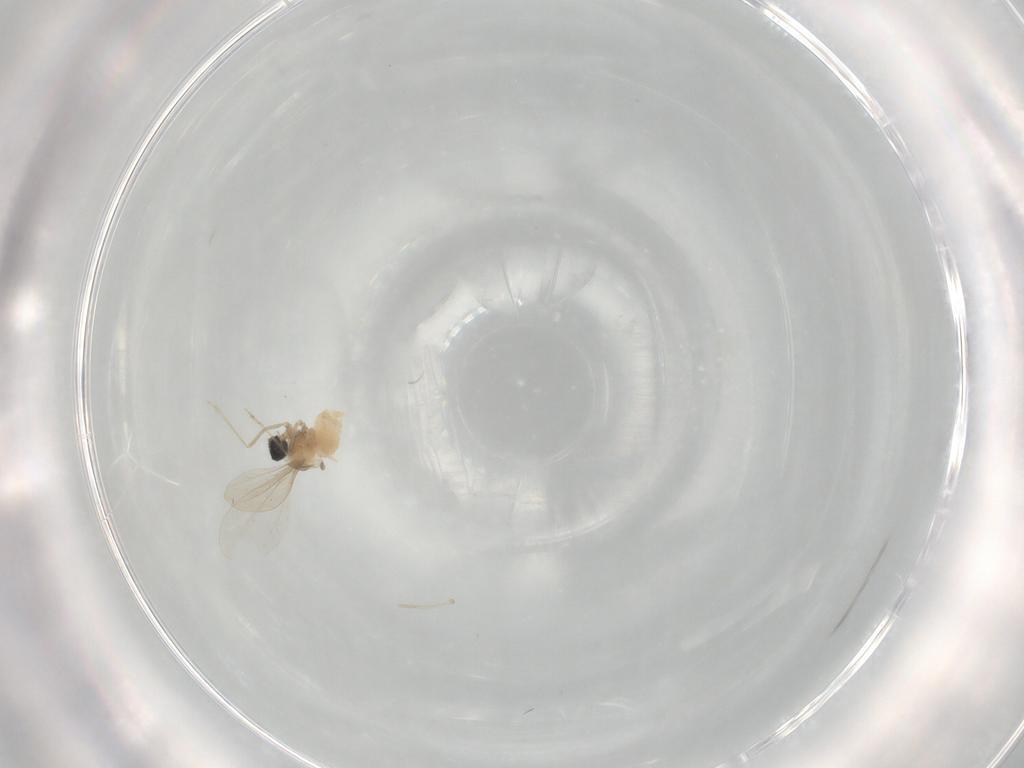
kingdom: Animalia
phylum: Arthropoda
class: Insecta
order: Diptera
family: Cecidomyiidae
